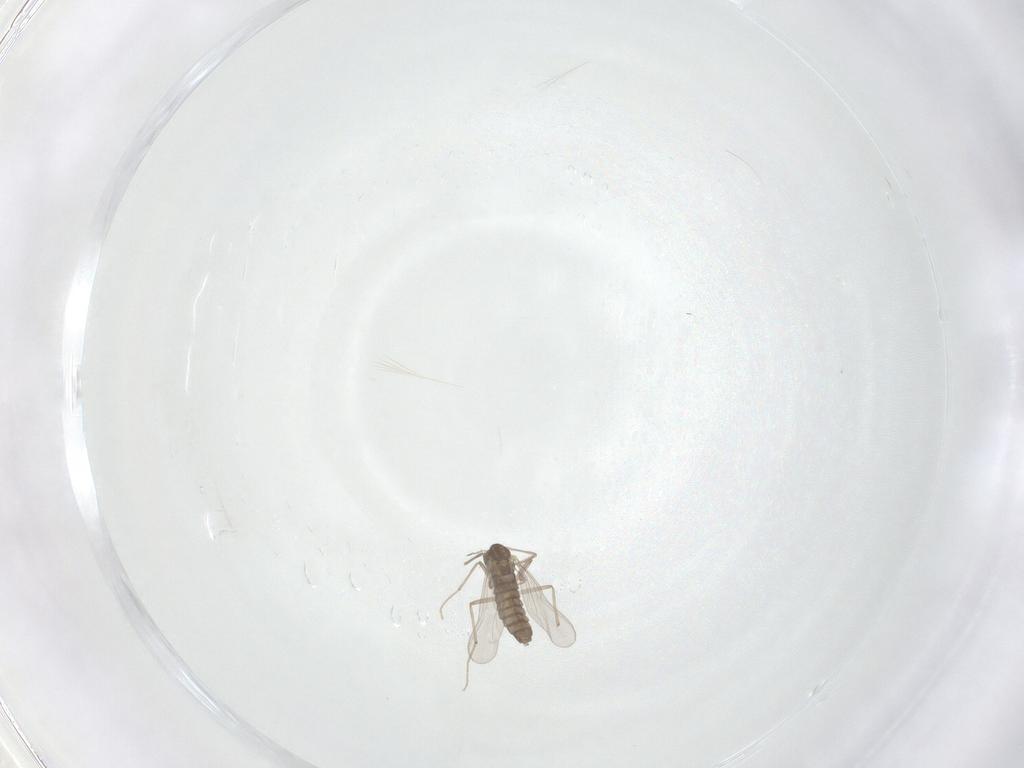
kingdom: Animalia
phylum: Arthropoda
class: Insecta
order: Diptera
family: Chironomidae
